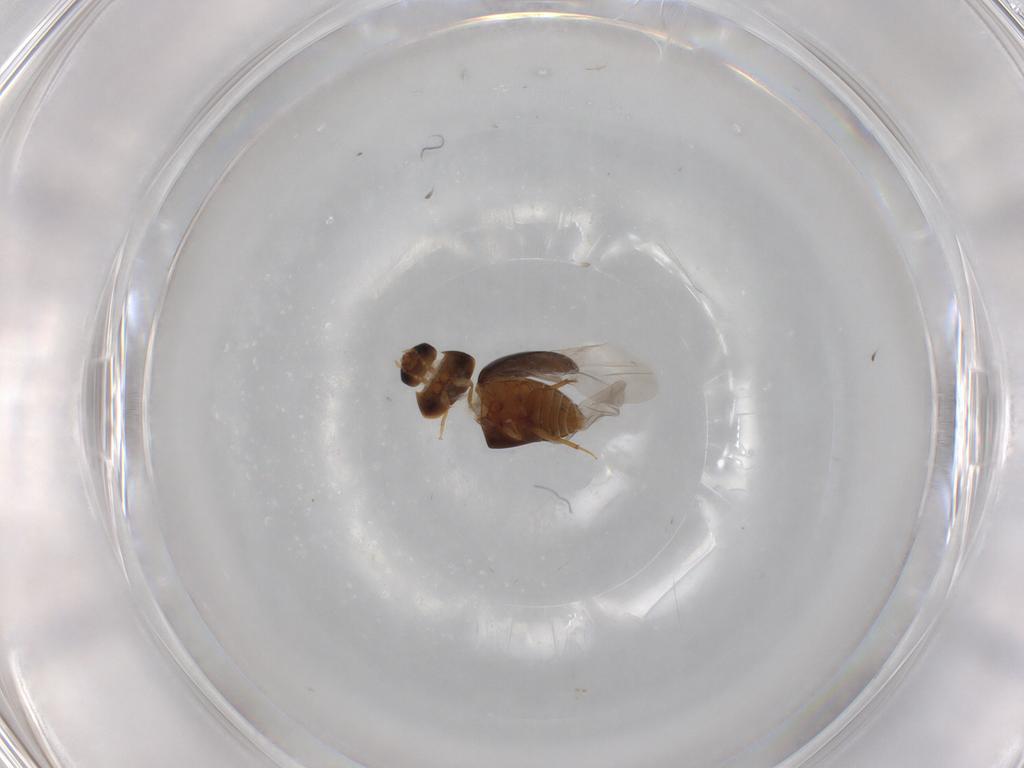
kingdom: Animalia
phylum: Arthropoda
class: Insecta
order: Coleoptera
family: Phalacridae
